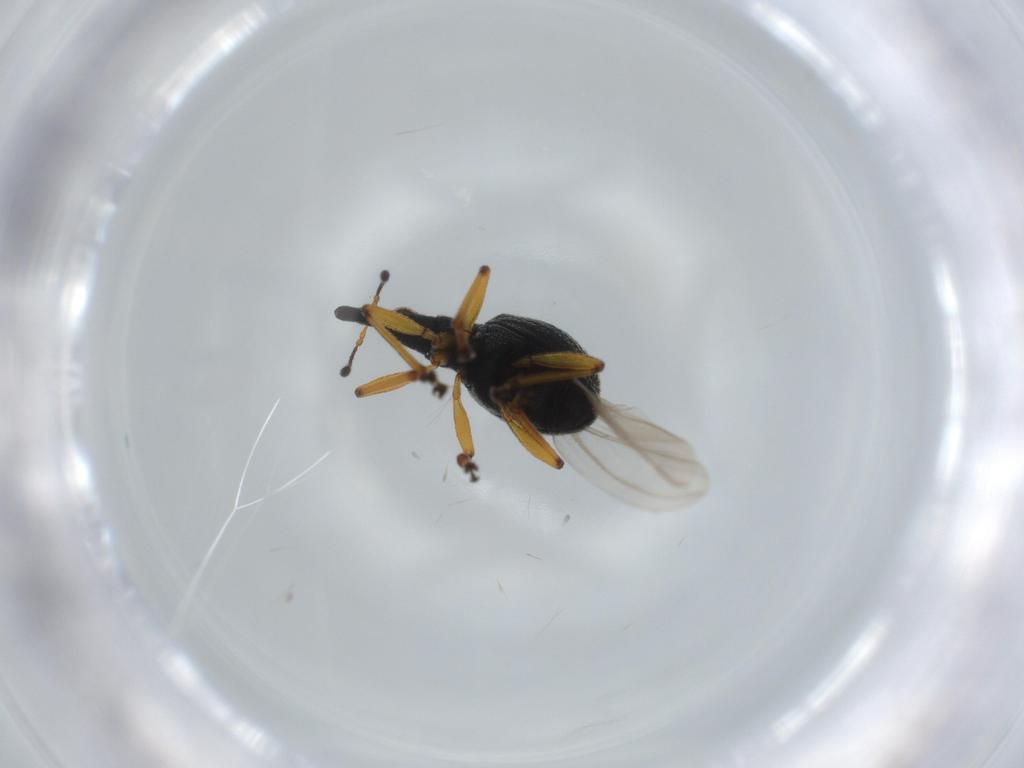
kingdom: Animalia
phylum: Arthropoda
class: Insecta
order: Coleoptera
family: Brentidae
